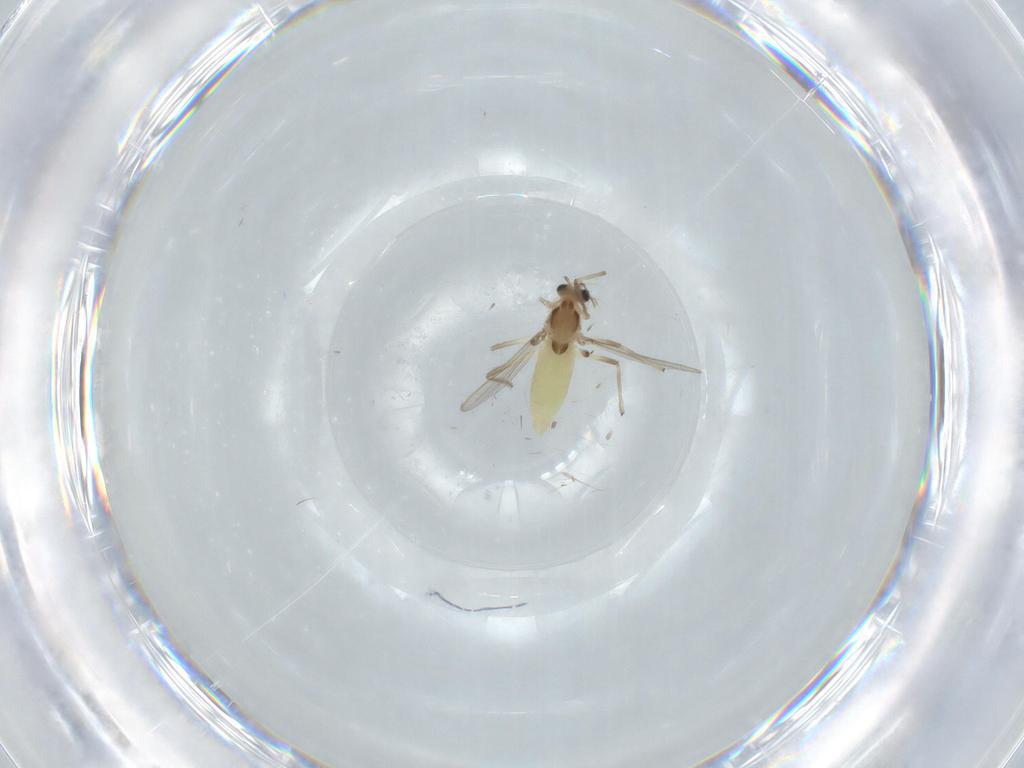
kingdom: Animalia
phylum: Arthropoda
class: Insecta
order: Diptera
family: Chironomidae
